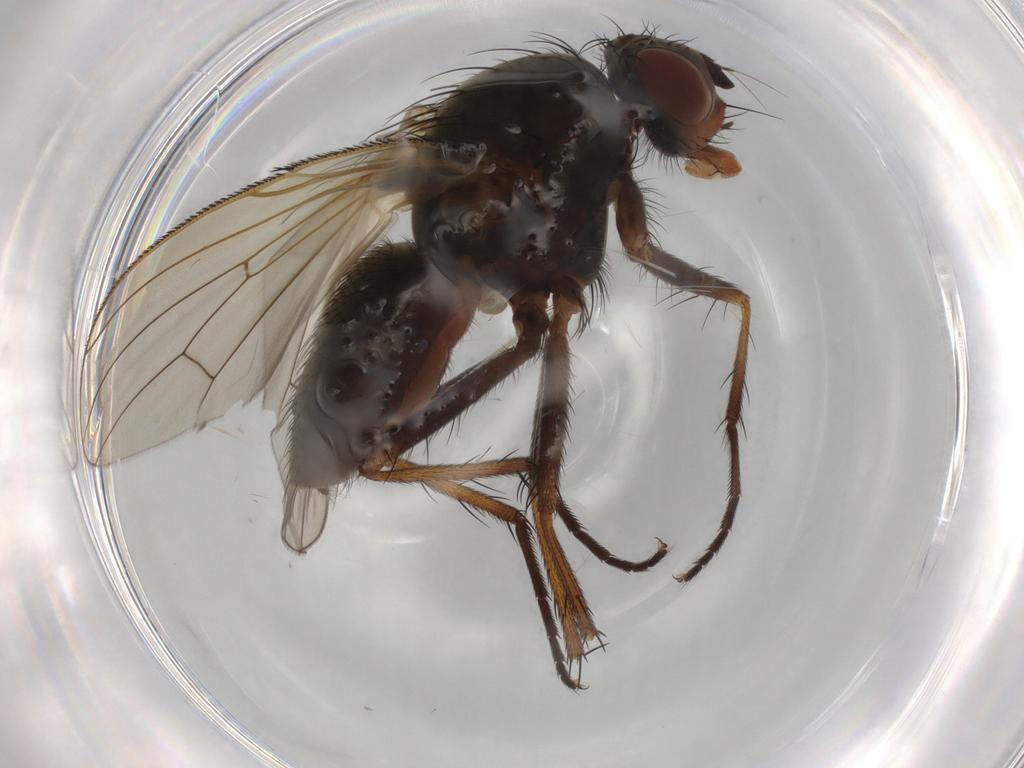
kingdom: Animalia
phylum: Arthropoda
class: Insecta
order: Diptera
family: Anthomyiidae
